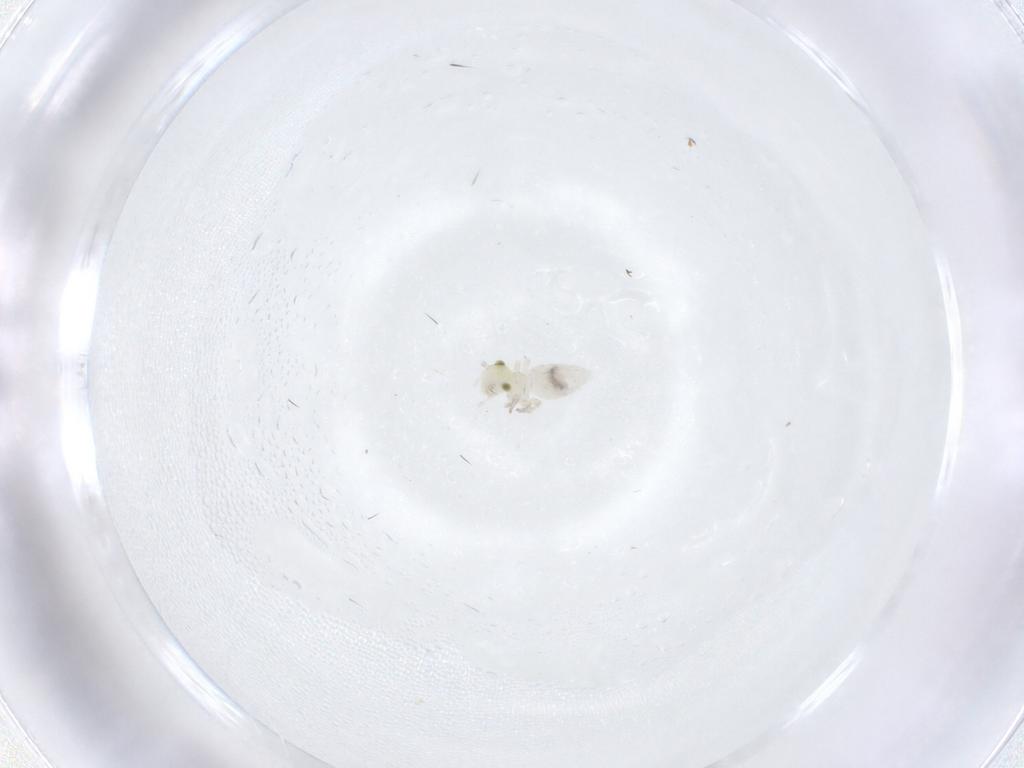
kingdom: Animalia
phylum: Arthropoda
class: Insecta
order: Psocodea
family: Caeciliusidae
